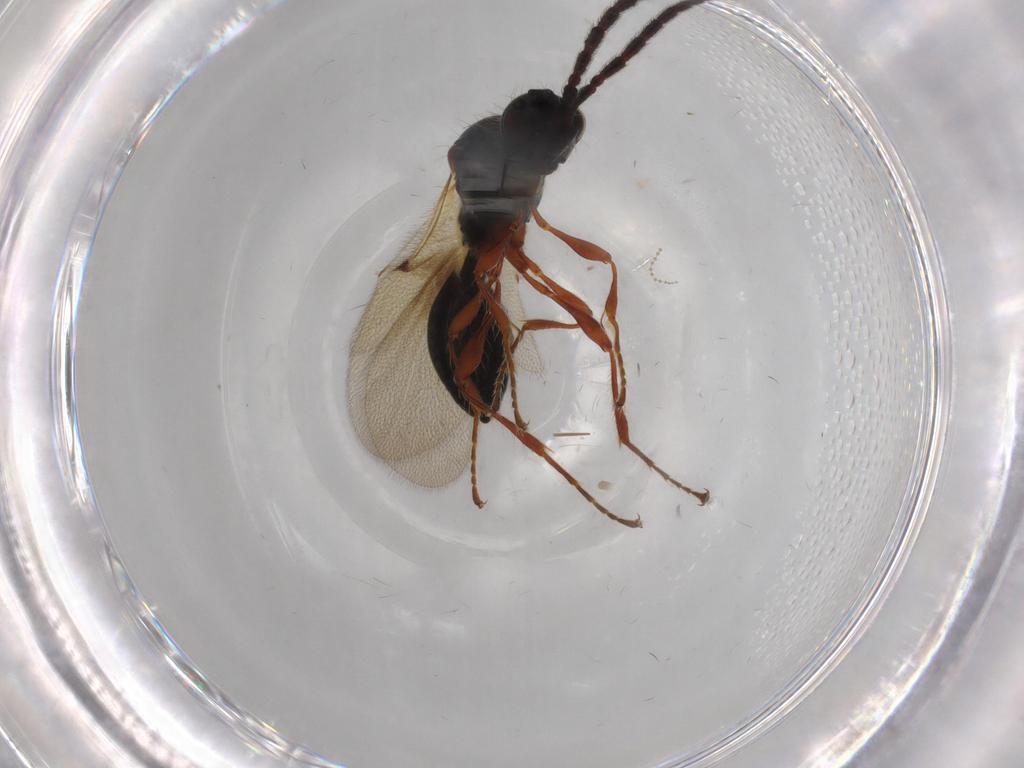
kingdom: Animalia
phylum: Arthropoda
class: Insecta
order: Hymenoptera
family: Diapriidae
